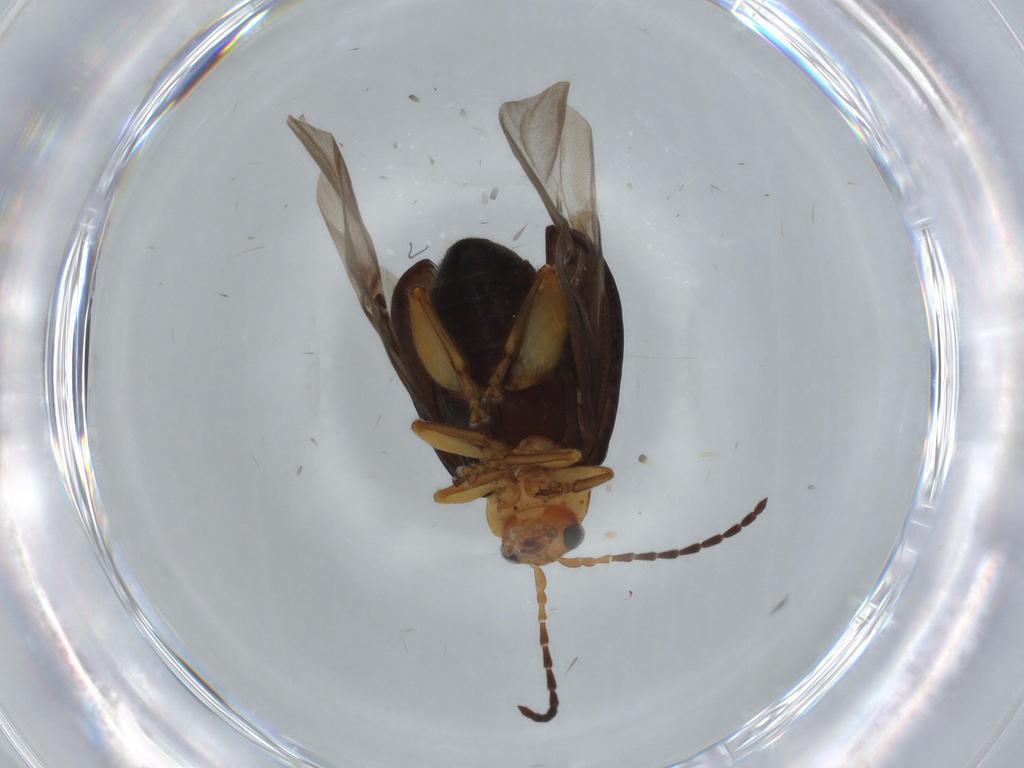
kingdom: Animalia
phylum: Arthropoda
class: Insecta
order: Coleoptera
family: Chrysomelidae
